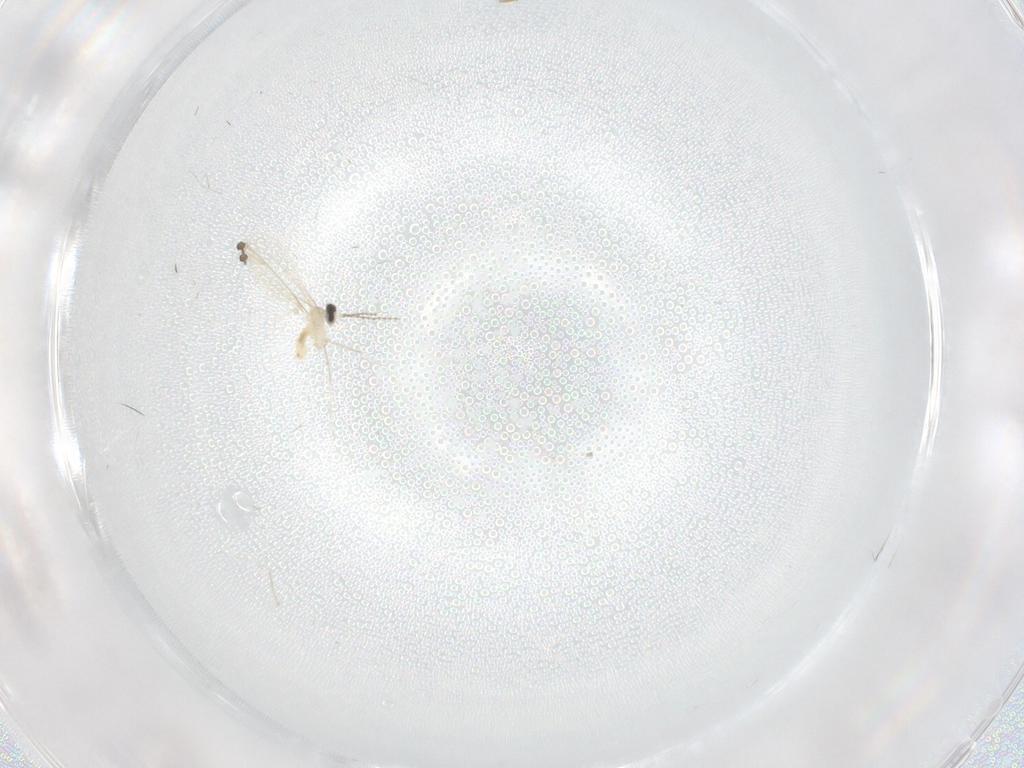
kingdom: Animalia
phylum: Arthropoda
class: Insecta
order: Diptera
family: Cecidomyiidae
